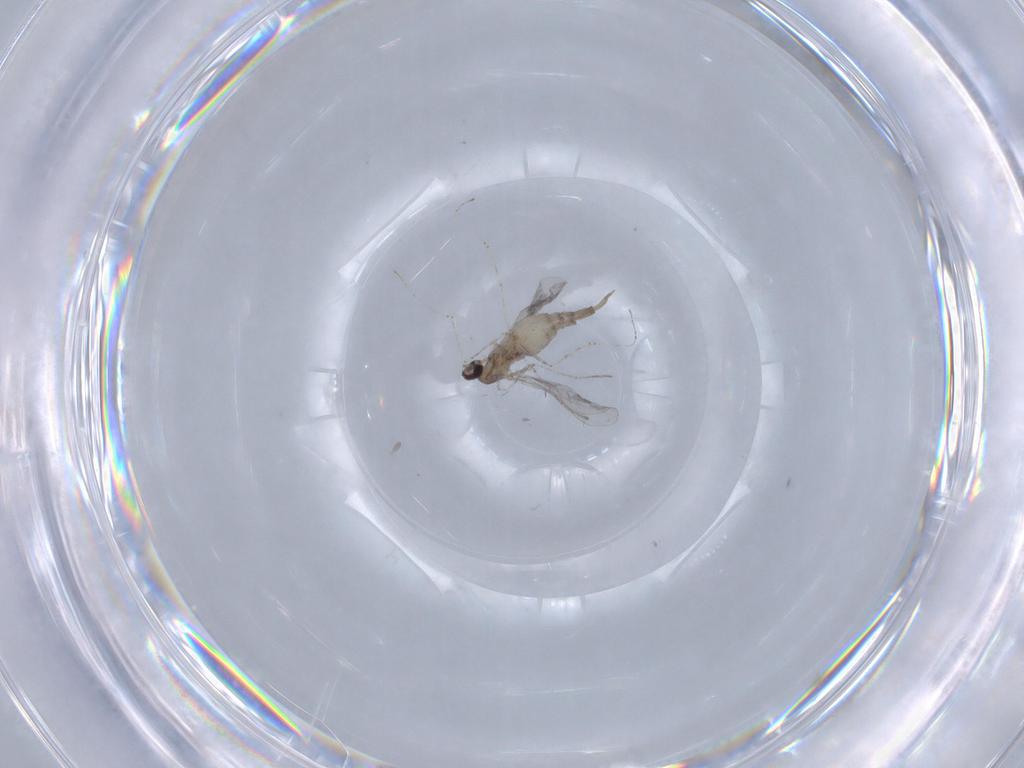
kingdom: Animalia
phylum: Arthropoda
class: Insecta
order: Diptera
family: Cecidomyiidae
